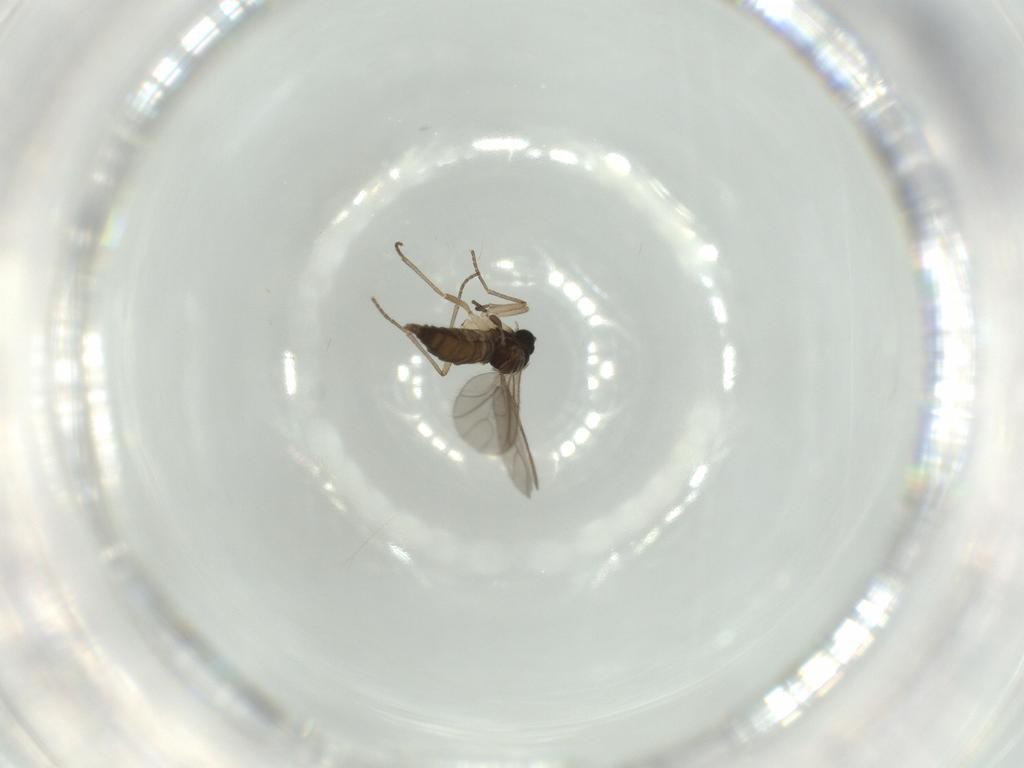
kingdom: Animalia
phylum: Arthropoda
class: Insecta
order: Diptera
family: Sciaridae
